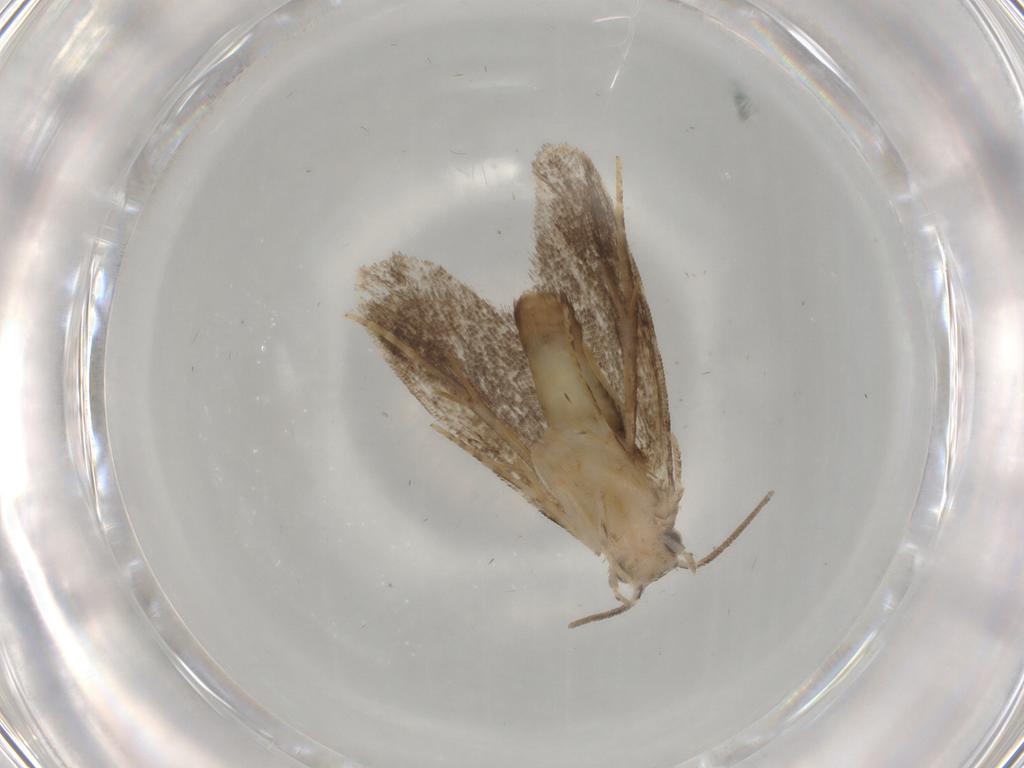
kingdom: Animalia
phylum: Arthropoda
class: Insecta
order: Lepidoptera
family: Dryadaulidae
